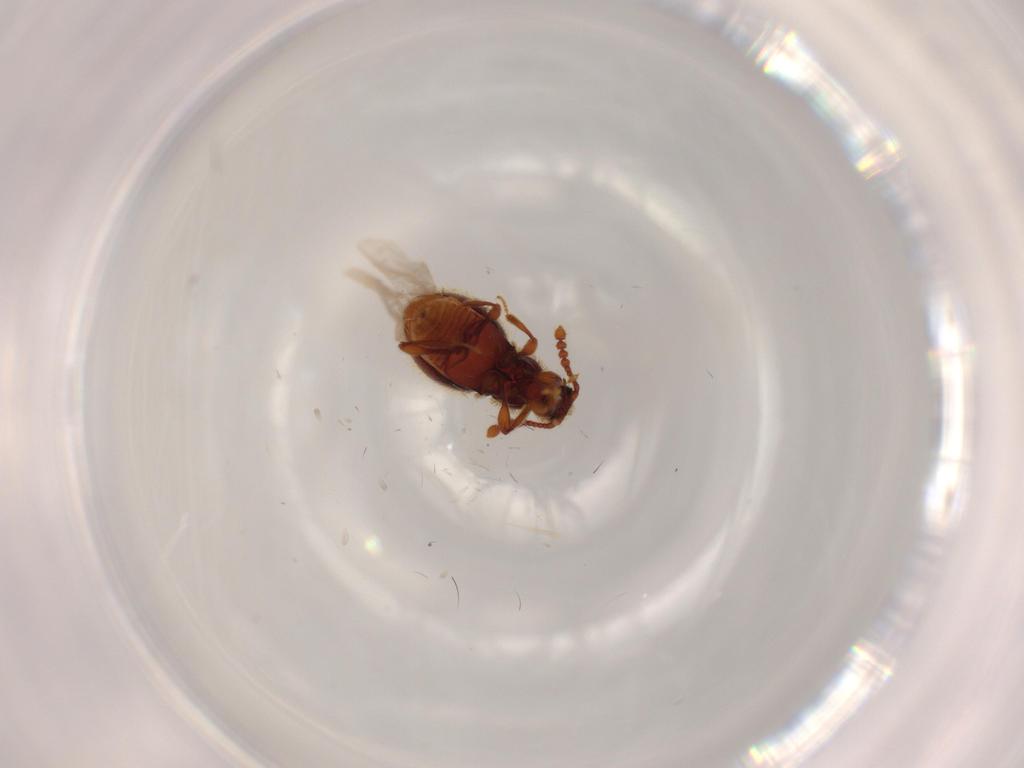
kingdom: Animalia
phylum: Arthropoda
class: Insecta
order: Coleoptera
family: Staphylinidae
